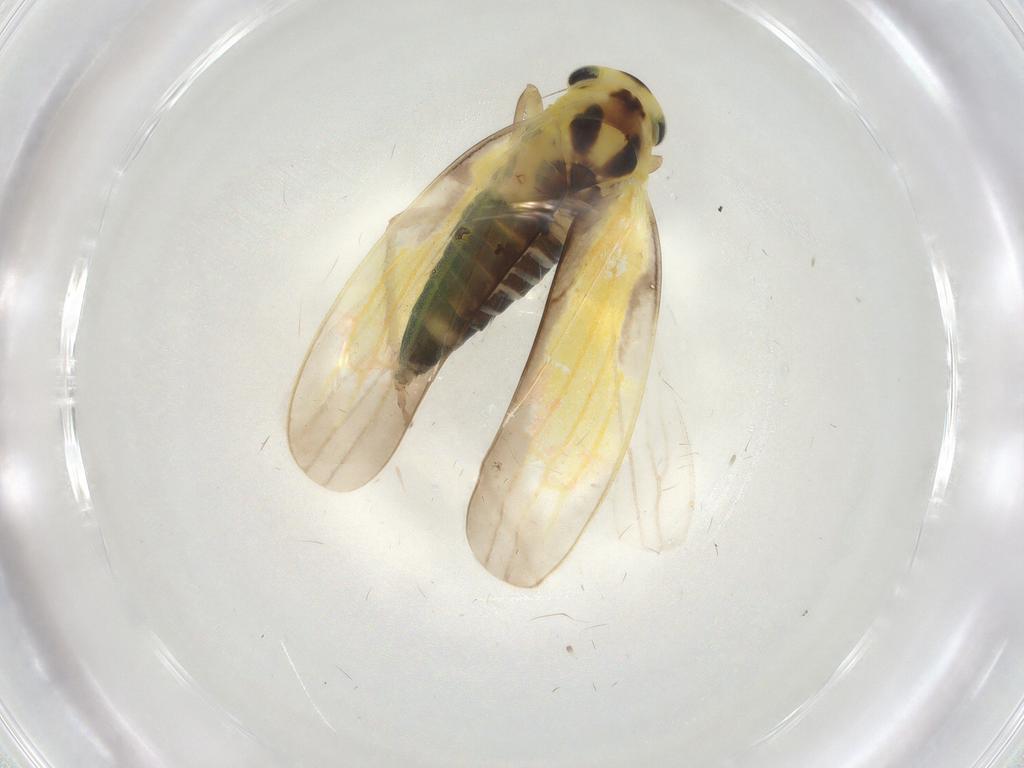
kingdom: Animalia
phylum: Arthropoda
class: Insecta
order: Hemiptera
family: Cicadellidae
